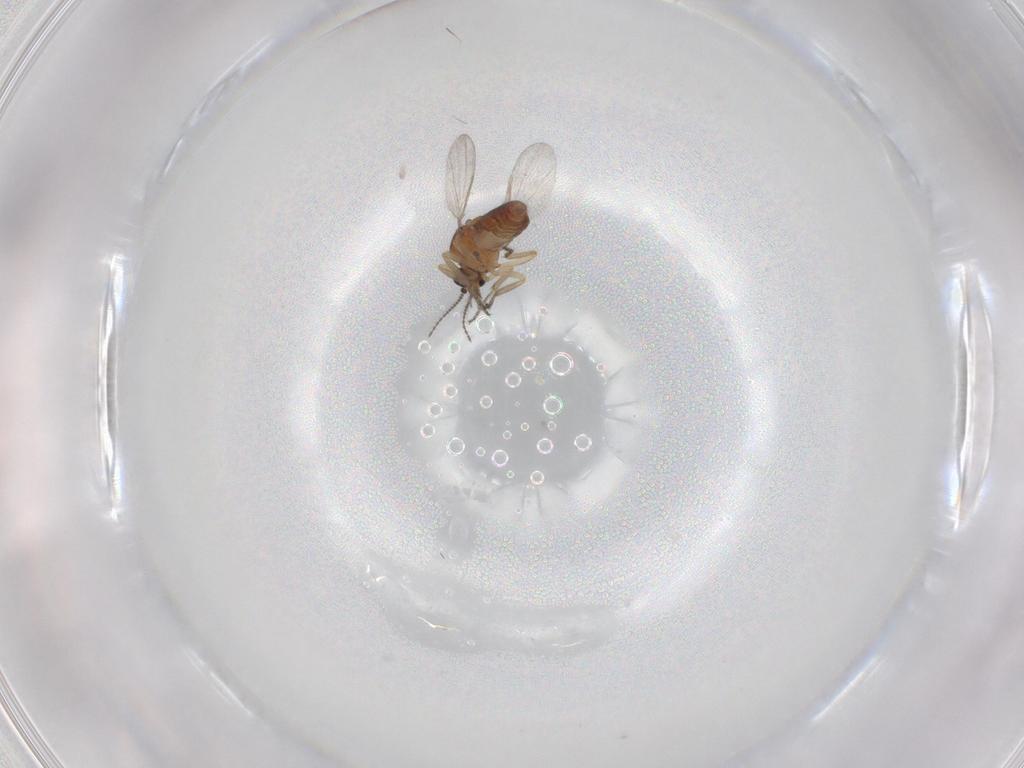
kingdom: Animalia
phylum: Arthropoda
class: Insecta
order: Diptera
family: Ceratopogonidae
